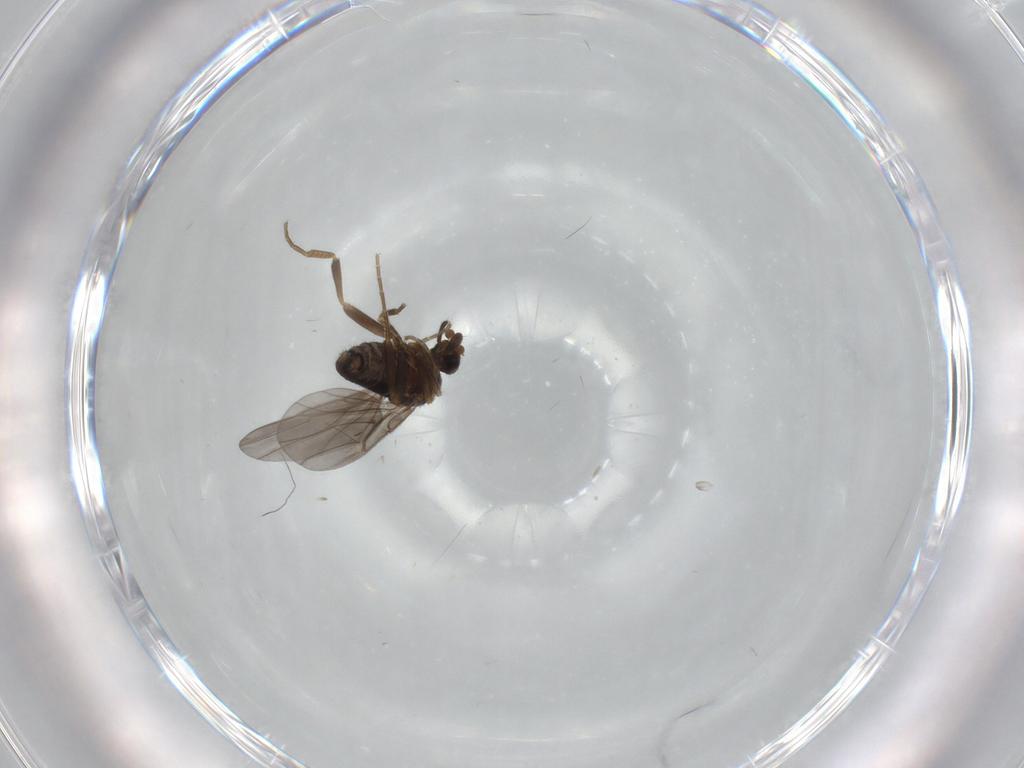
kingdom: Animalia
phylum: Arthropoda
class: Insecta
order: Diptera
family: Phoridae
